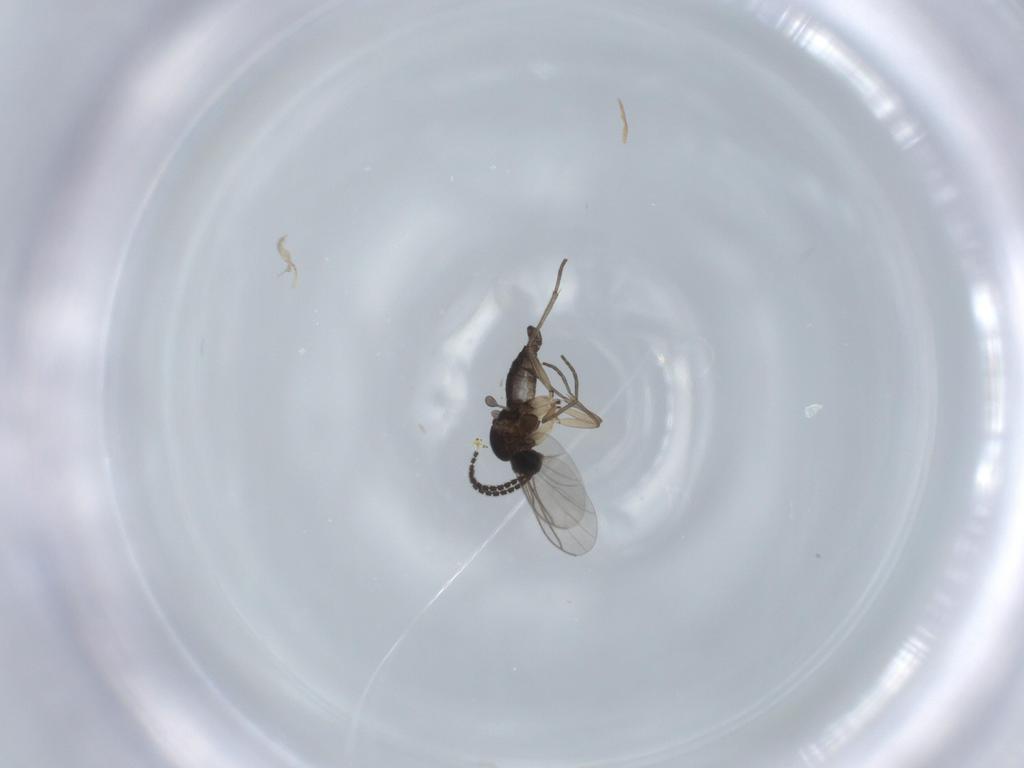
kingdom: Animalia
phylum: Arthropoda
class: Insecta
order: Diptera
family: Sciaridae
